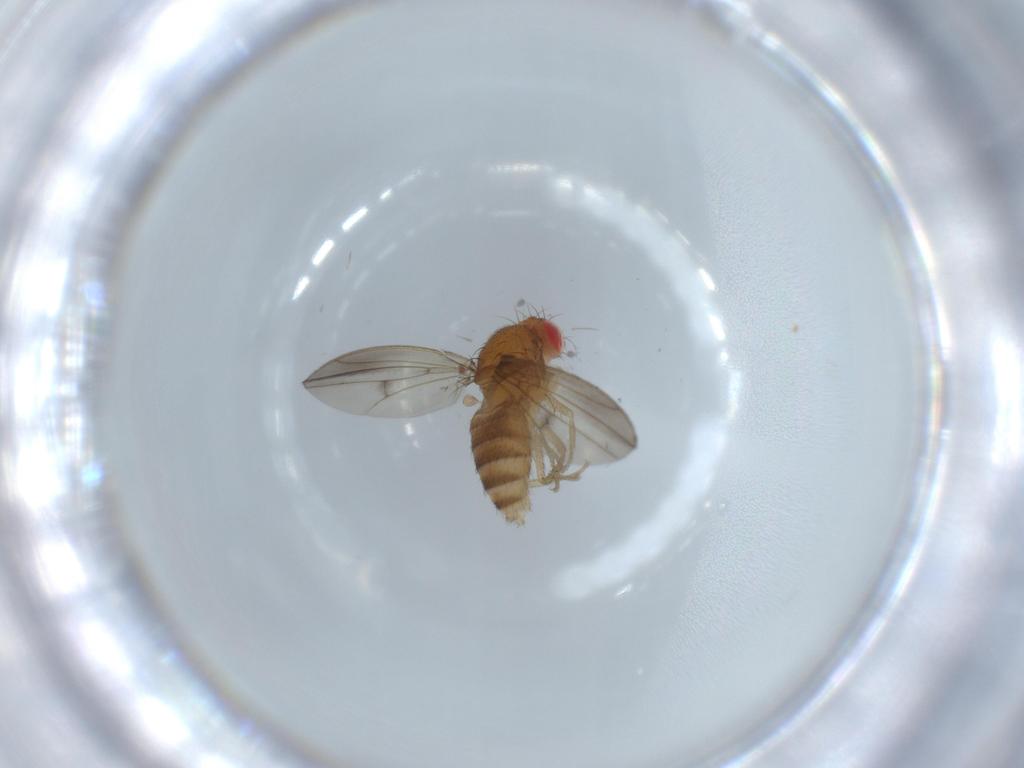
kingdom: Animalia
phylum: Arthropoda
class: Insecta
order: Diptera
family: Drosophilidae
